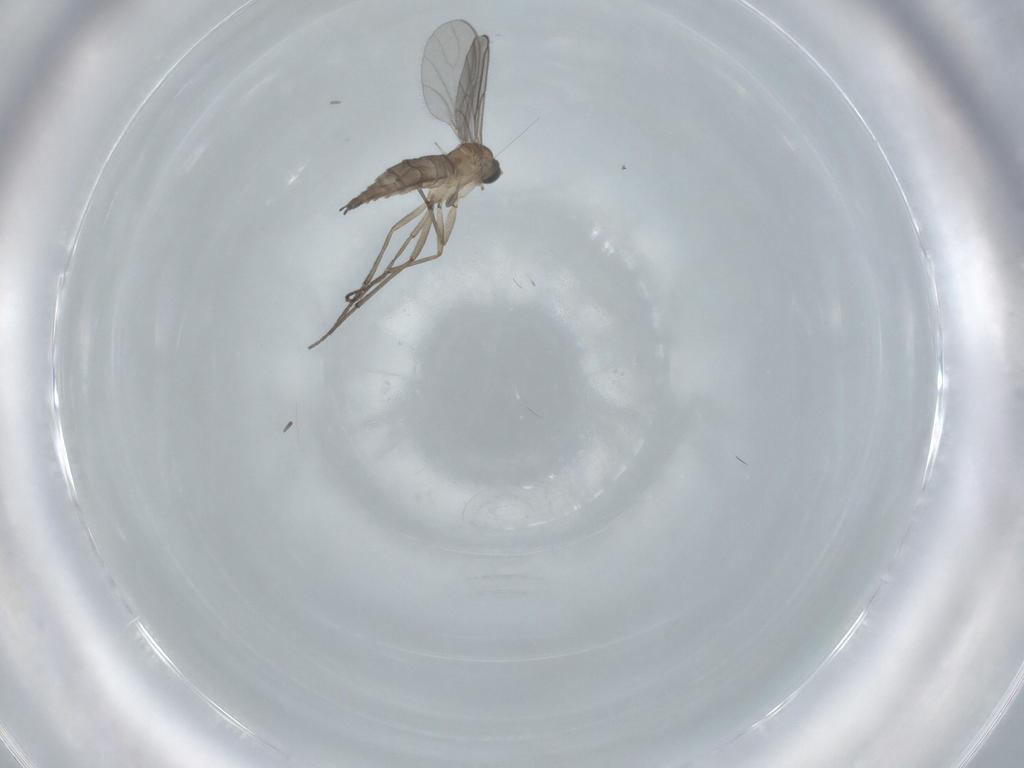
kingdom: Animalia
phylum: Arthropoda
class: Insecta
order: Diptera
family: Sciaridae
